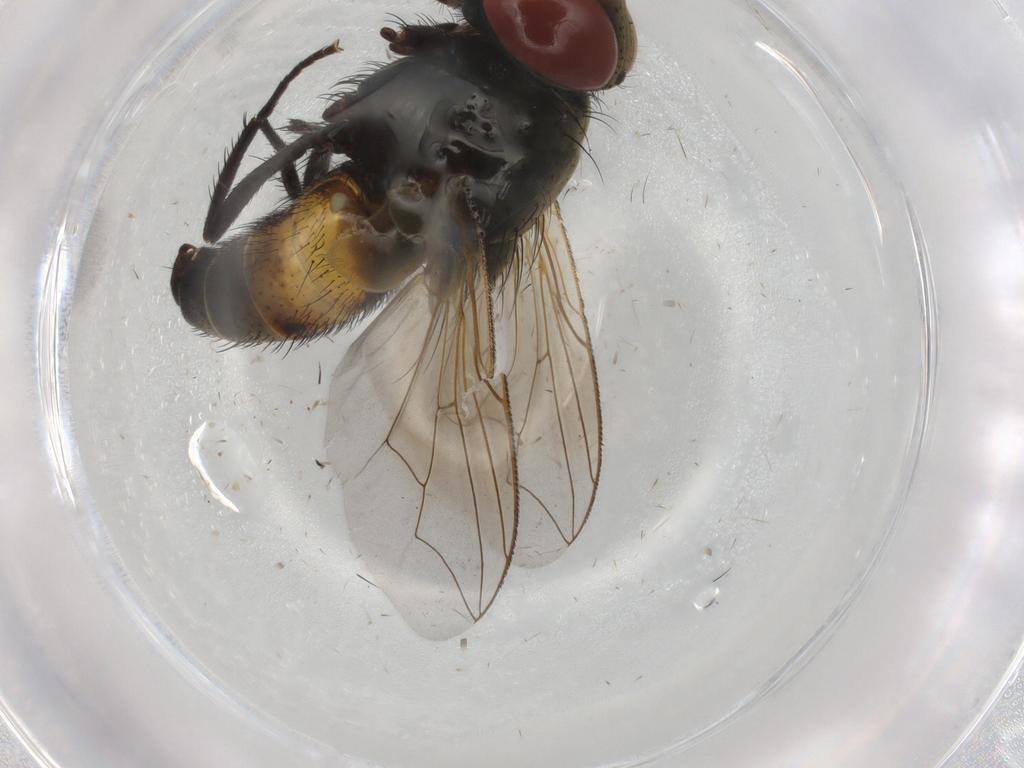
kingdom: Animalia
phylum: Arthropoda
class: Insecta
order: Diptera
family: Sarcophagidae
